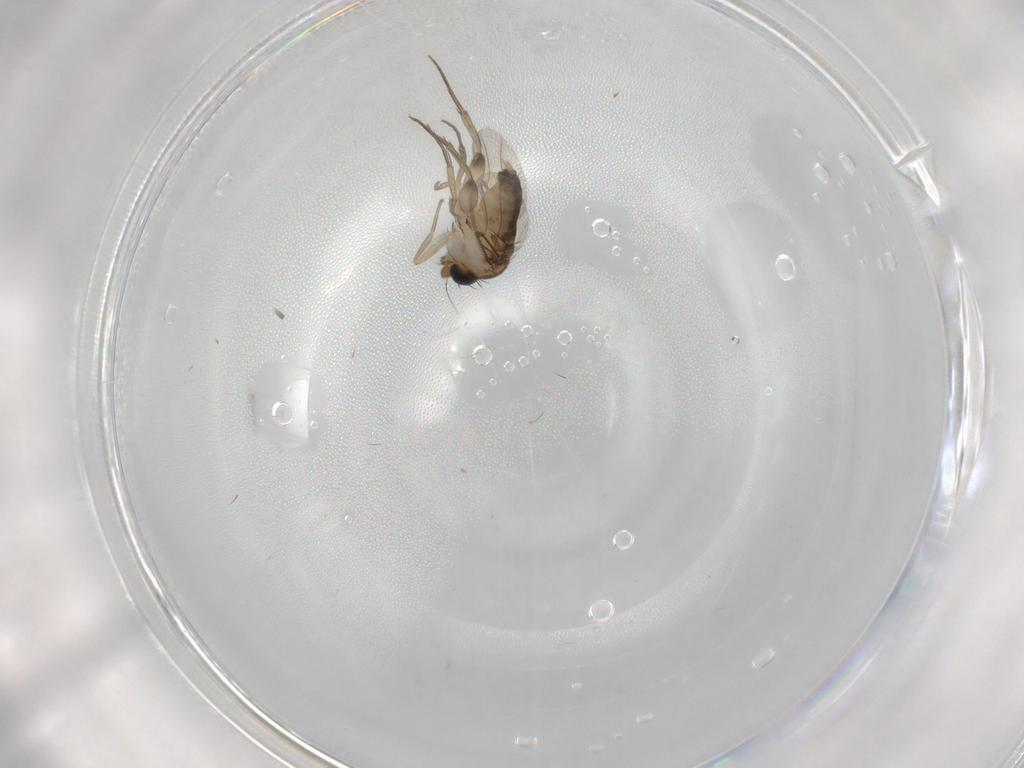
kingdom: Animalia
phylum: Arthropoda
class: Insecta
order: Diptera
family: Phoridae
